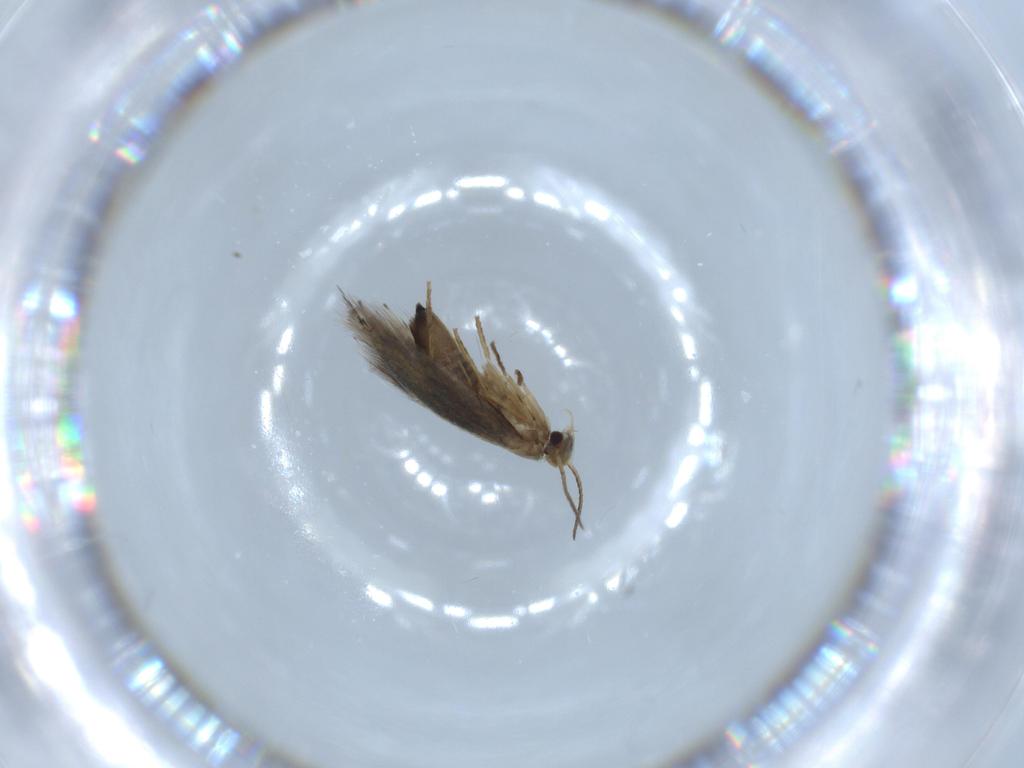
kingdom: Animalia
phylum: Arthropoda
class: Insecta
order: Lepidoptera
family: Heliozelidae
